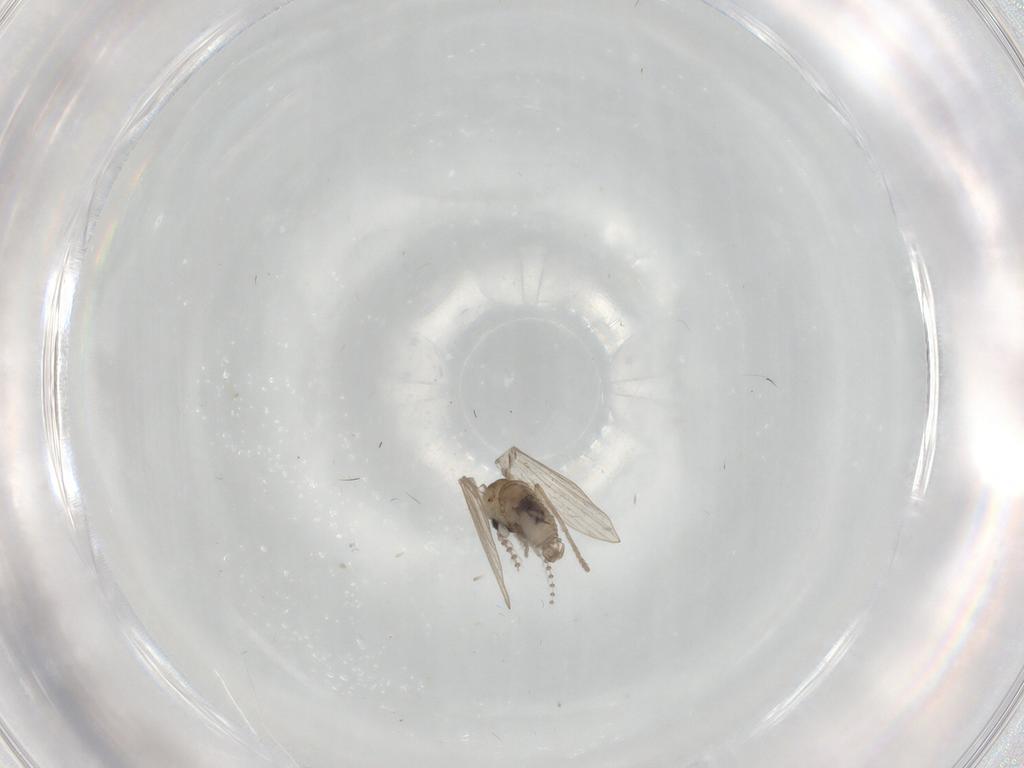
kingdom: Animalia
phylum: Arthropoda
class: Insecta
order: Diptera
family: Psychodidae
